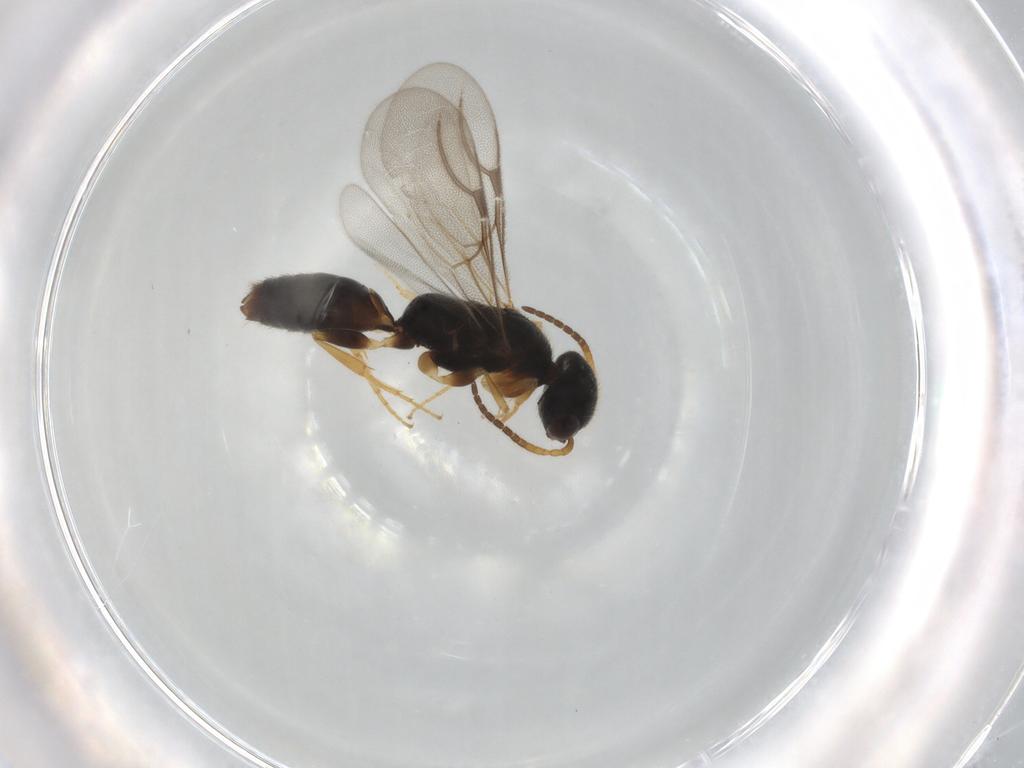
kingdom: Animalia
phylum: Arthropoda
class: Insecta
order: Hymenoptera
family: Bethylidae
